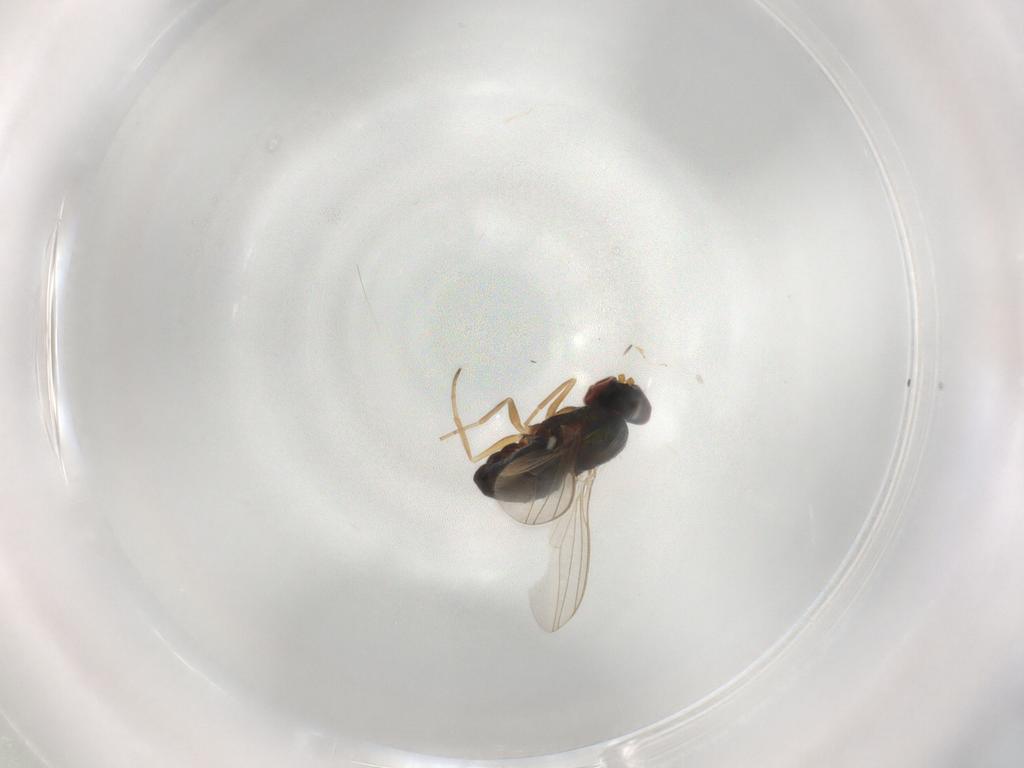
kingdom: Animalia
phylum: Arthropoda
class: Insecta
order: Diptera
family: Dolichopodidae
